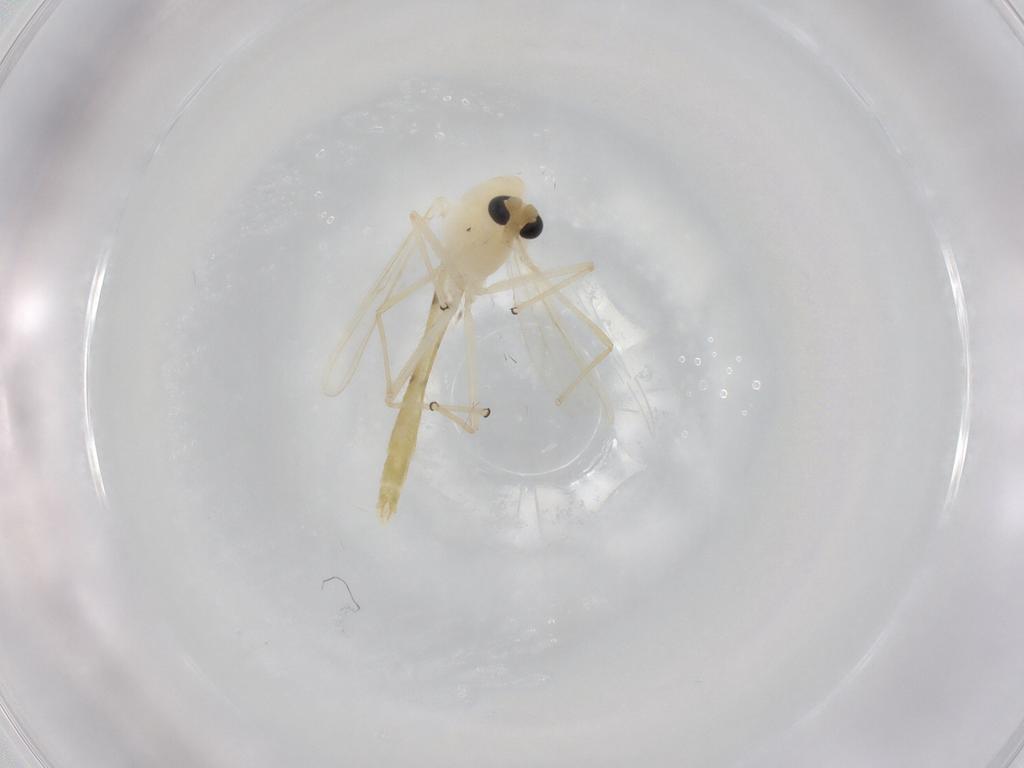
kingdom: Animalia
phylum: Arthropoda
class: Insecta
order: Diptera
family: Chironomidae
